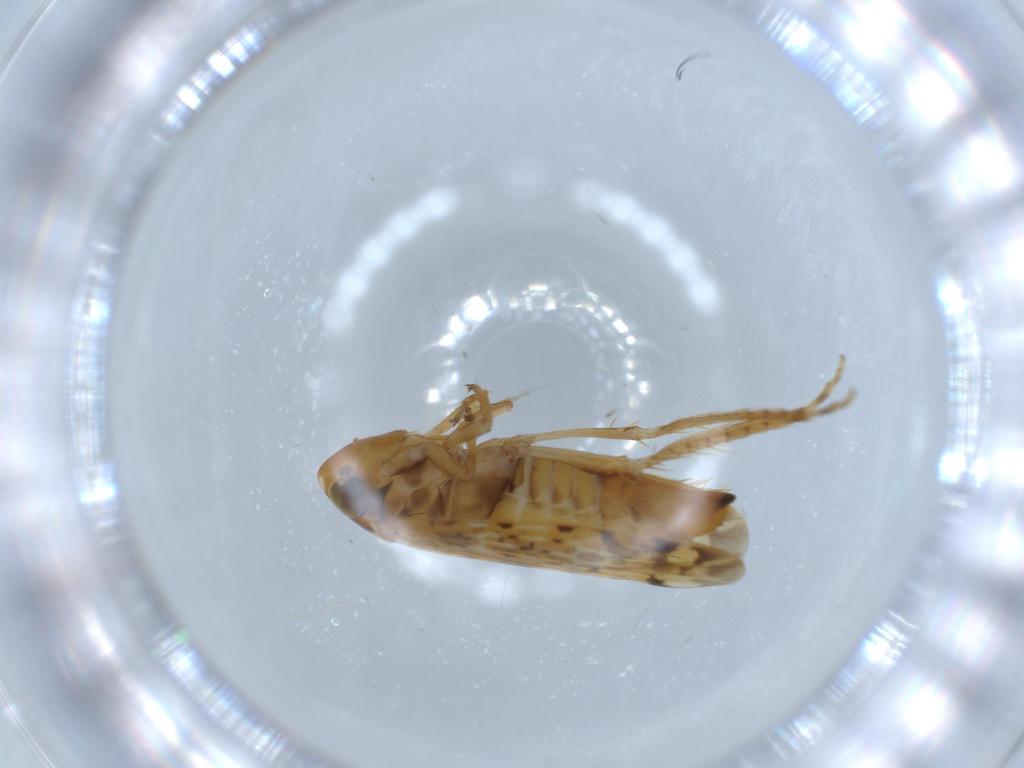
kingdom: Animalia
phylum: Arthropoda
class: Insecta
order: Hemiptera
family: Cicadellidae
